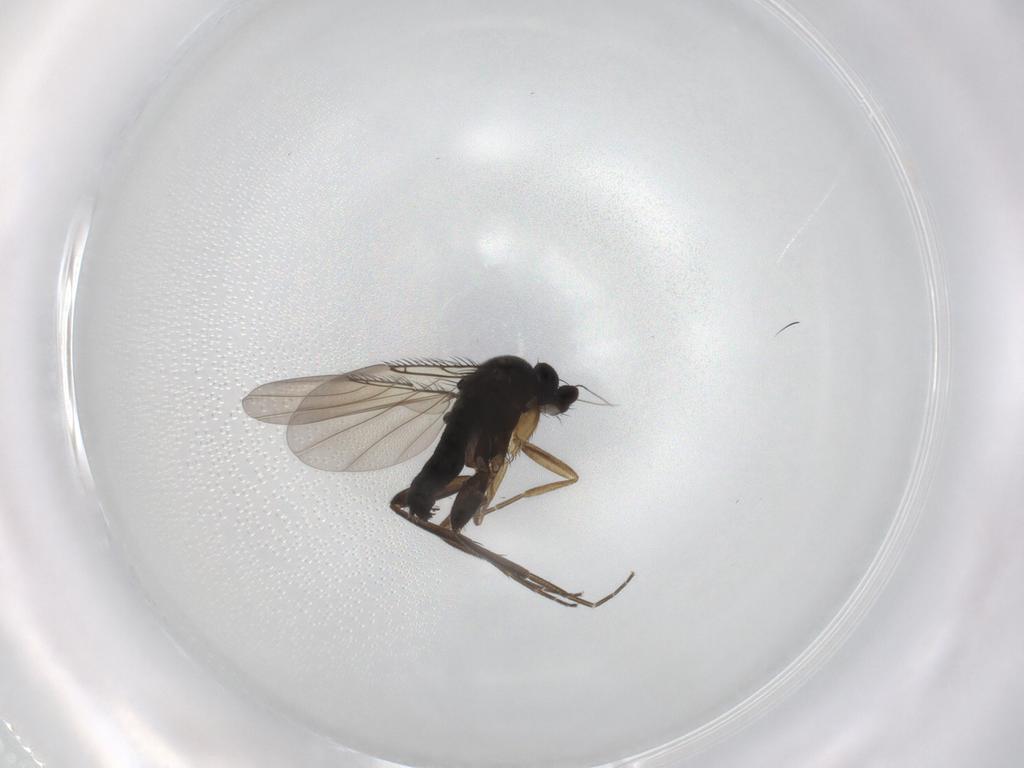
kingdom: Animalia
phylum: Arthropoda
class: Insecta
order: Diptera
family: Phoridae
